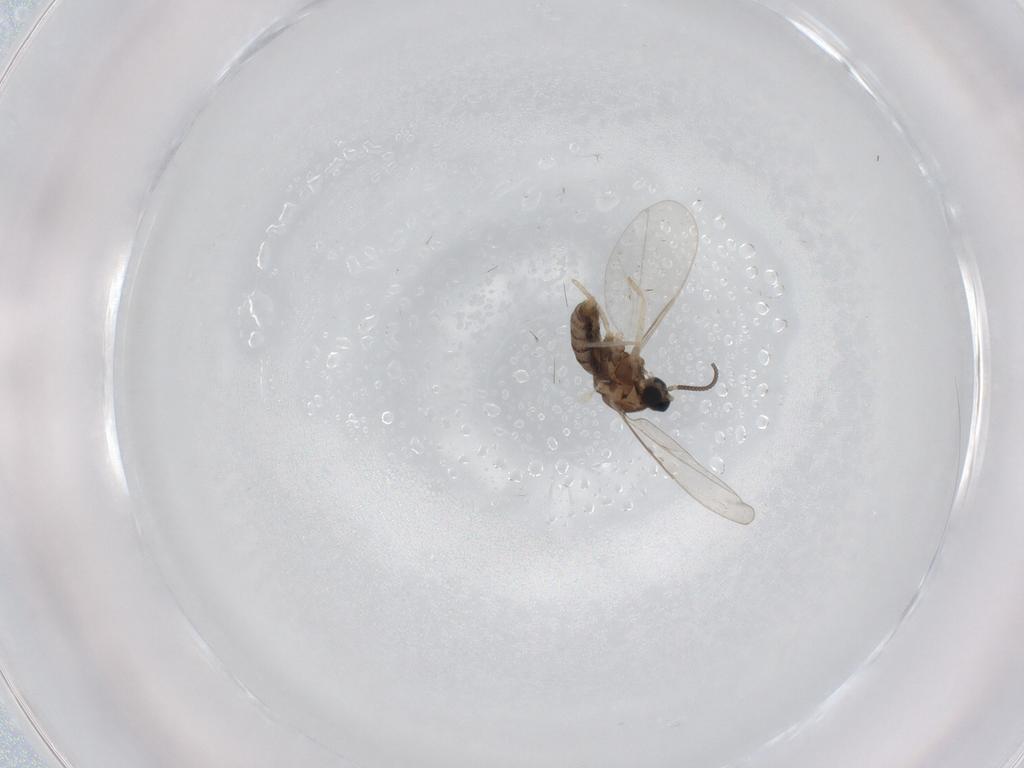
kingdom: Animalia
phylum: Arthropoda
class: Insecta
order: Diptera
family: Cecidomyiidae
